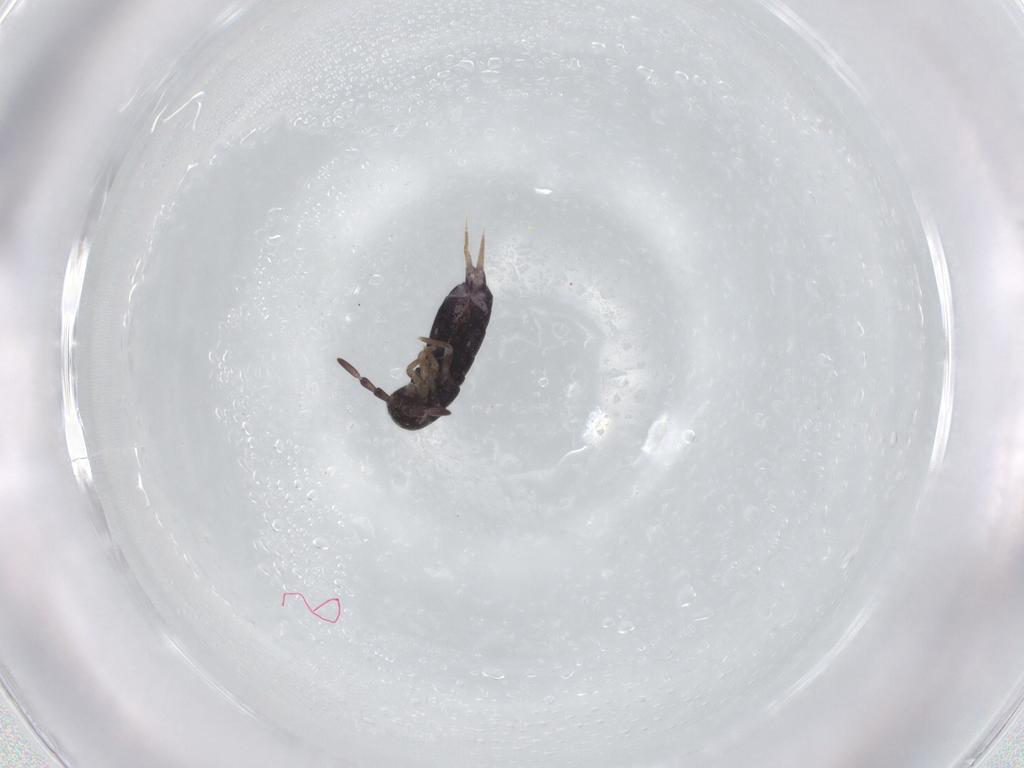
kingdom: Animalia
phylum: Arthropoda
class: Collembola
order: Entomobryomorpha
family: Isotomidae
